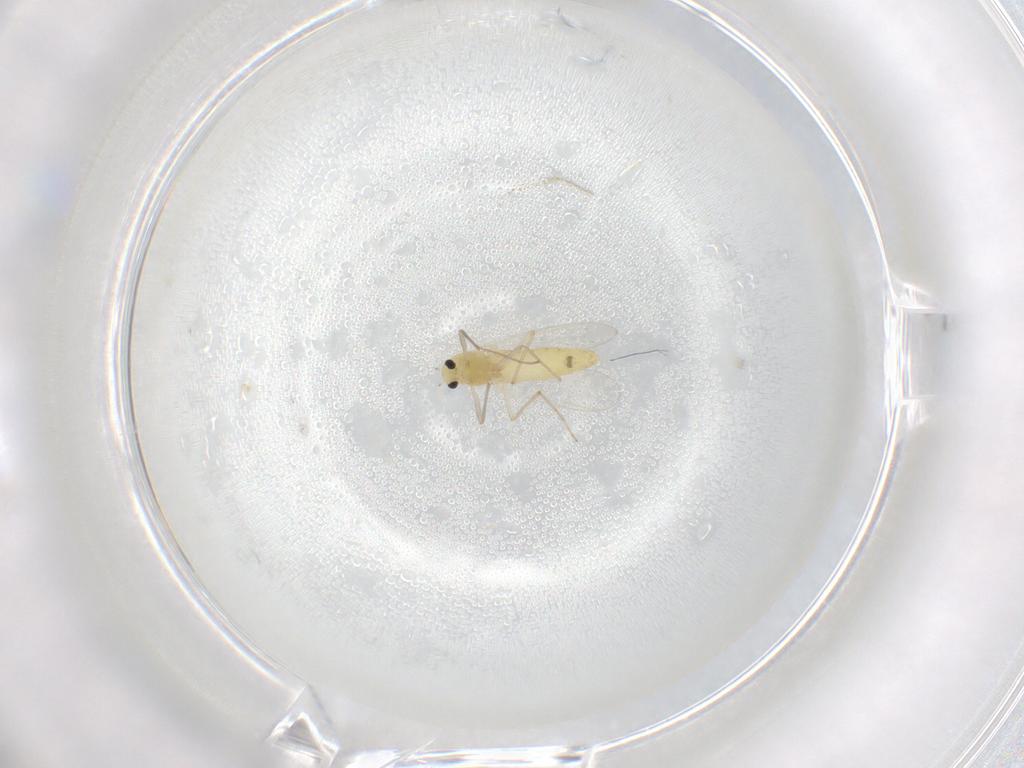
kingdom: Animalia
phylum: Arthropoda
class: Insecta
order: Diptera
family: Chironomidae
